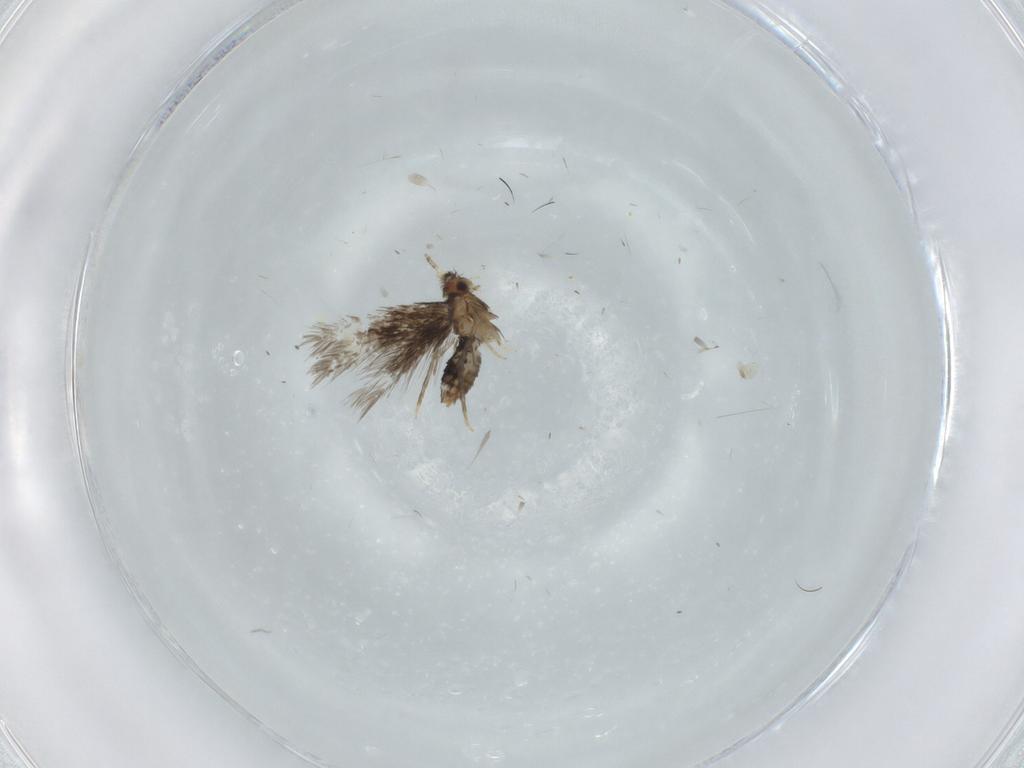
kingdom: Animalia
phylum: Arthropoda
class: Insecta
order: Lepidoptera
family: Nepticulidae
